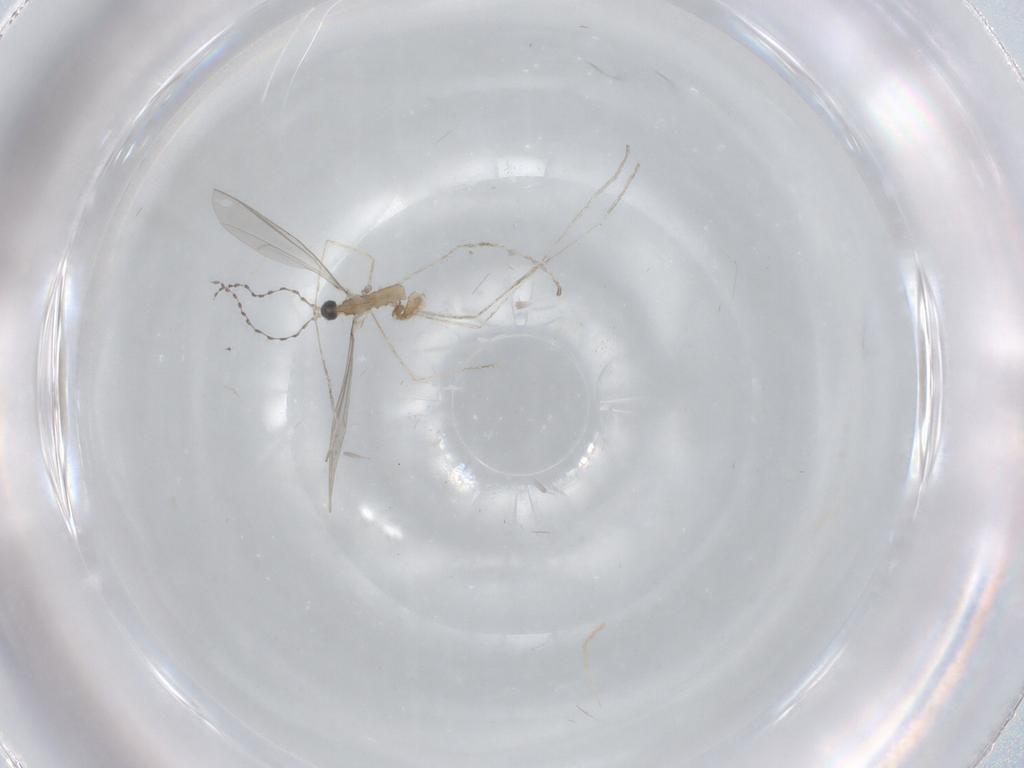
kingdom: Animalia
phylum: Arthropoda
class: Insecta
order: Diptera
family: Cecidomyiidae
